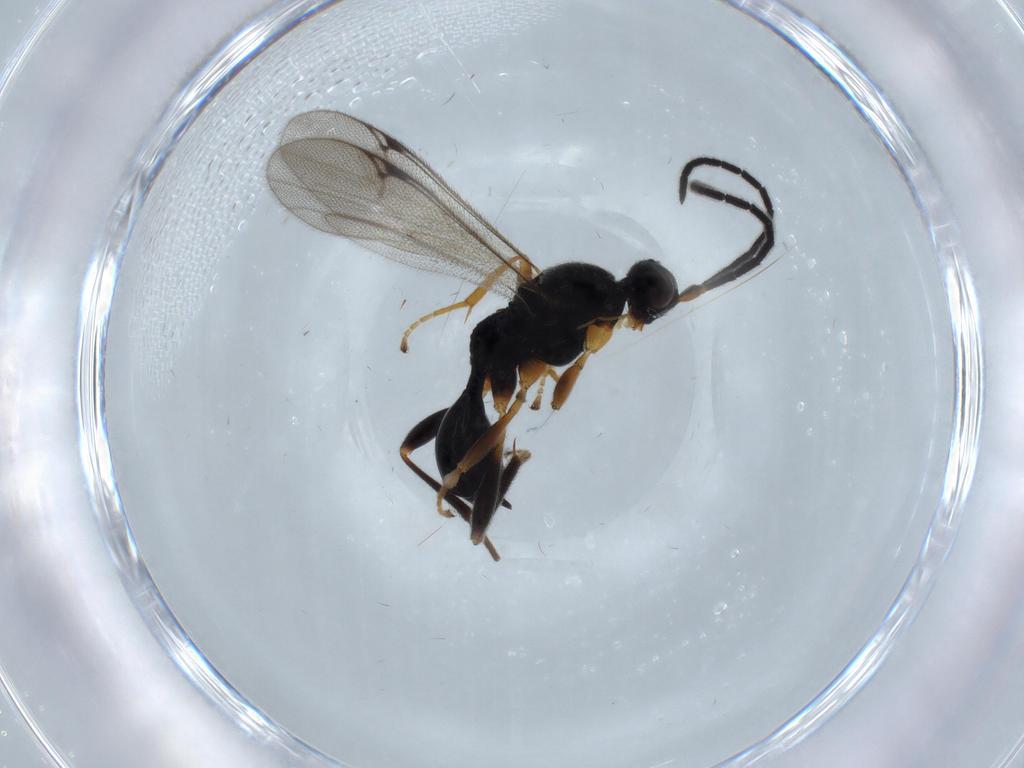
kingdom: Animalia
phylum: Arthropoda
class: Insecta
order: Hymenoptera
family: Proctotrupidae
